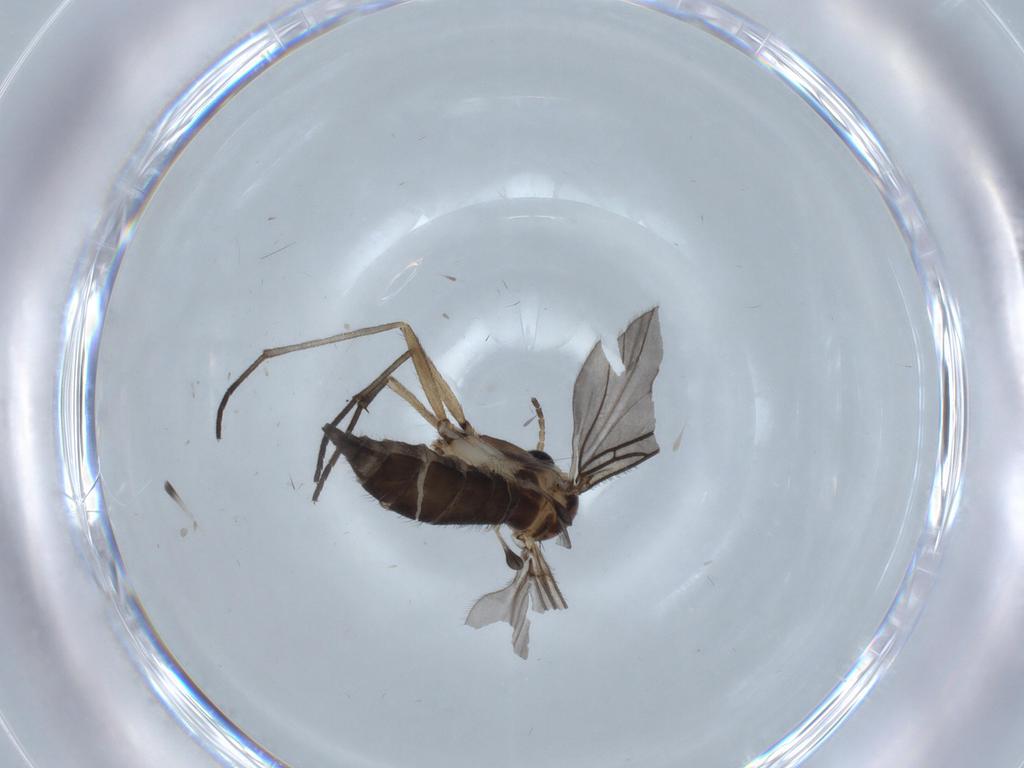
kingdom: Animalia
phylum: Arthropoda
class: Insecta
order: Diptera
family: Sciaridae
